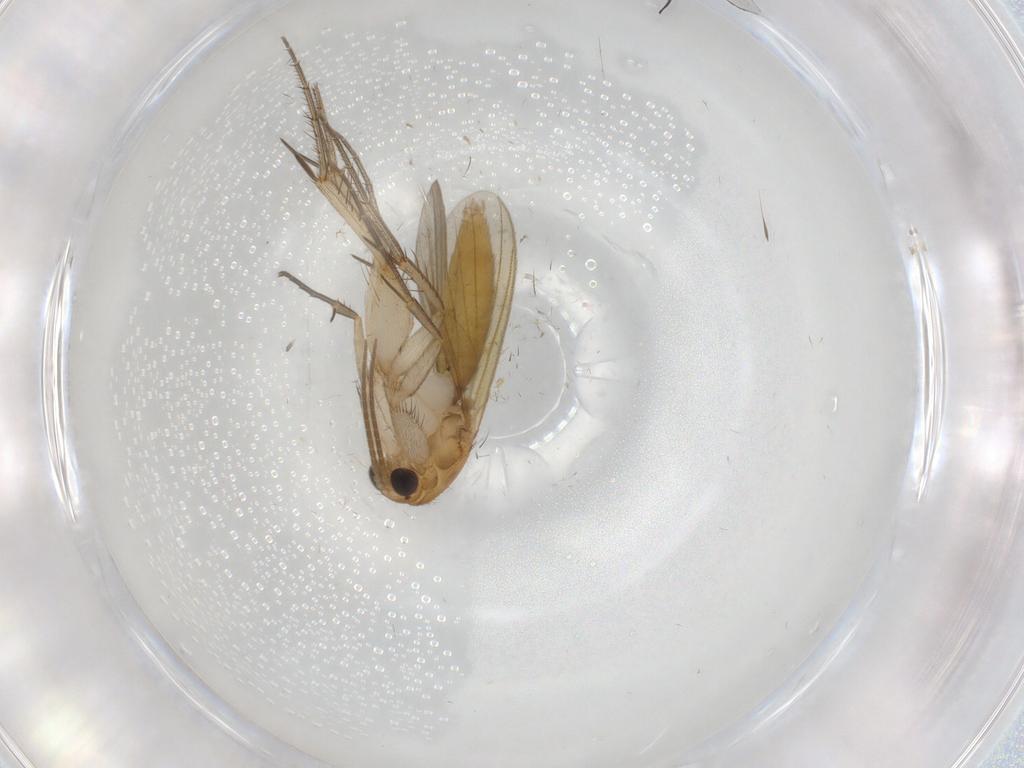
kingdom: Animalia
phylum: Arthropoda
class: Insecta
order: Diptera
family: Mycetophilidae
